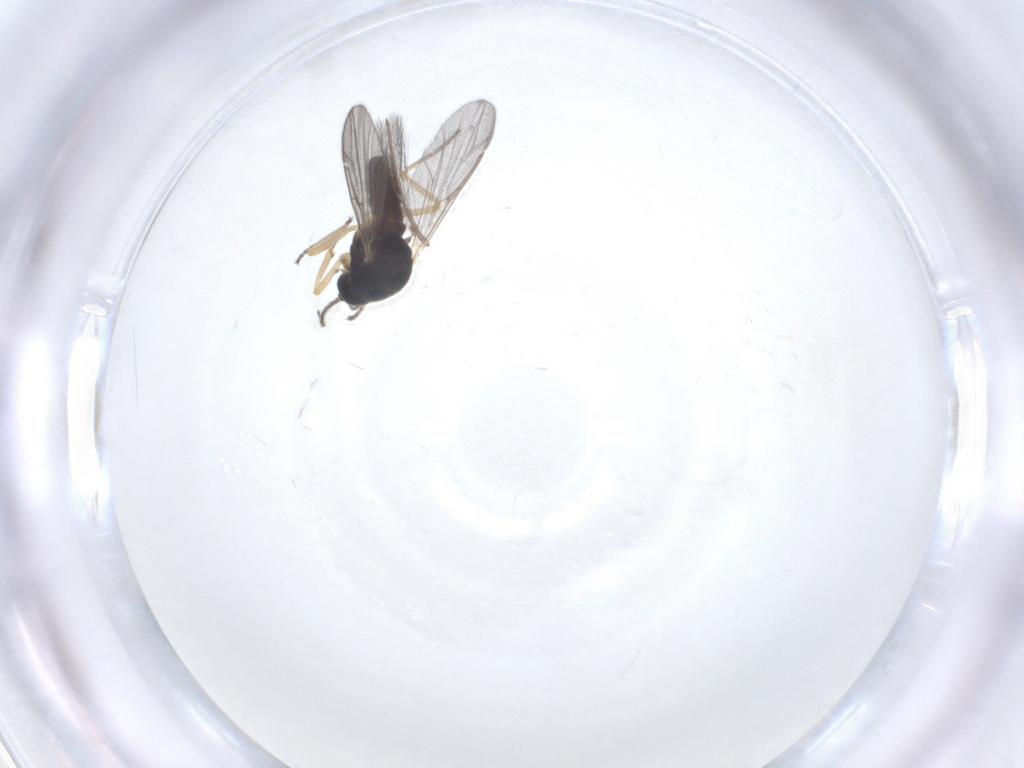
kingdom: Animalia
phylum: Arthropoda
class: Insecta
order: Diptera
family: Ceratopogonidae
